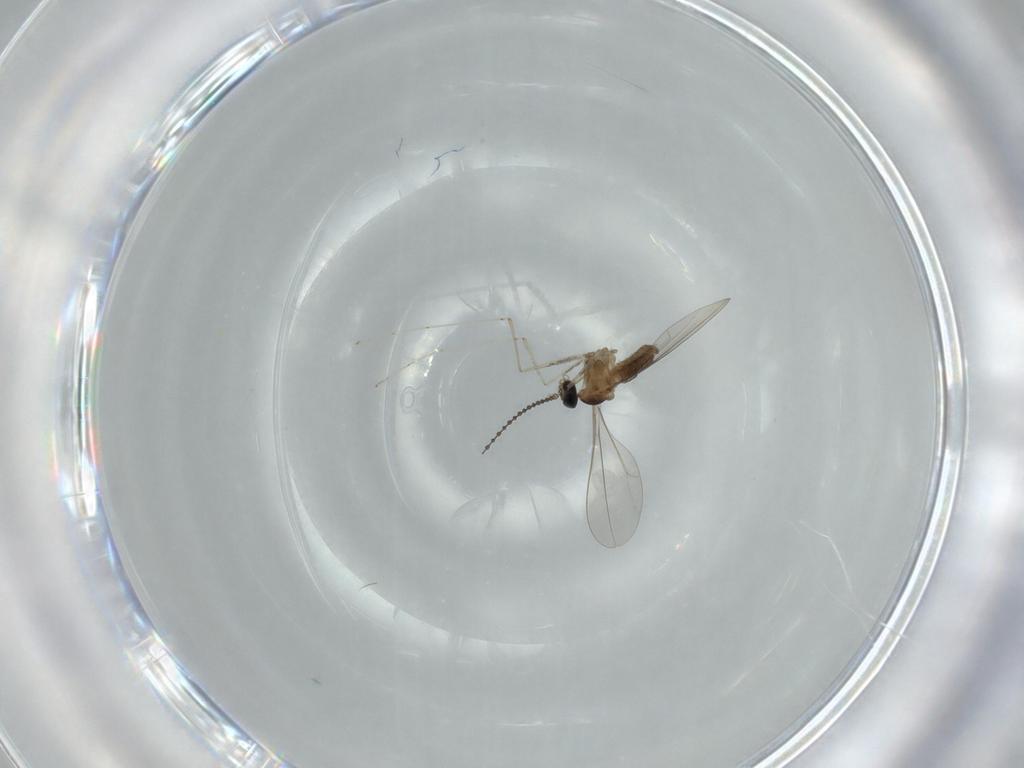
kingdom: Animalia
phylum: Arthropoda
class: Insecta
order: Diptera
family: Cecidomyiidae
